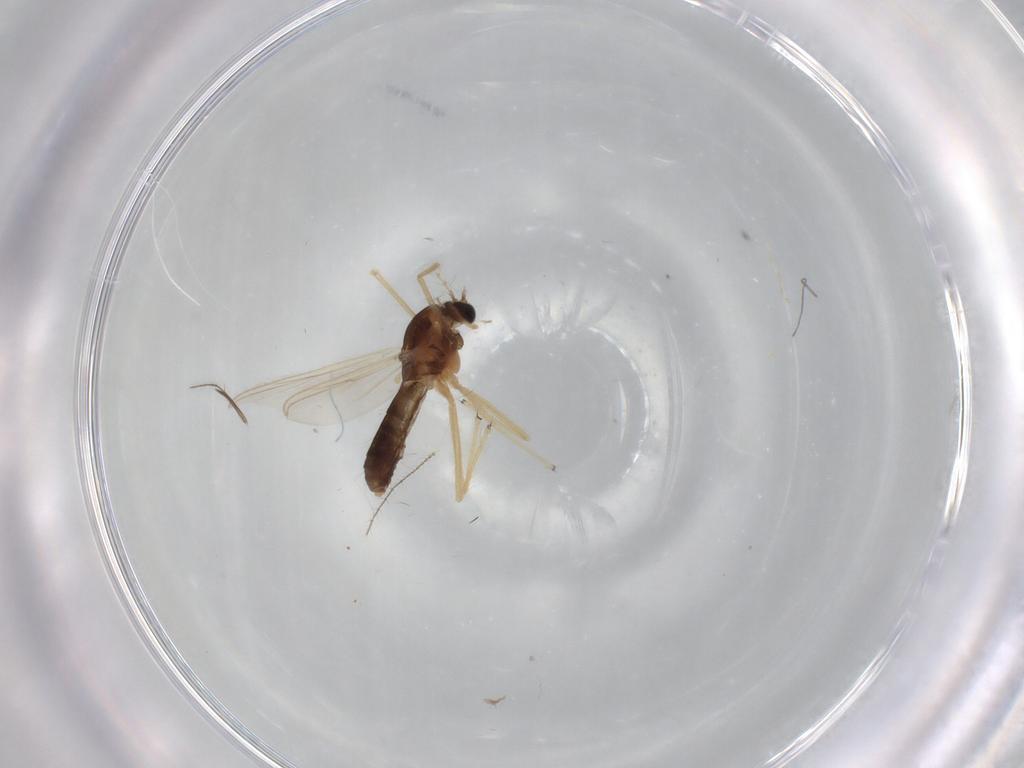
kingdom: Animalia
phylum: Arthropoda
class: Insecta
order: Diptera
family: Chironomidae
